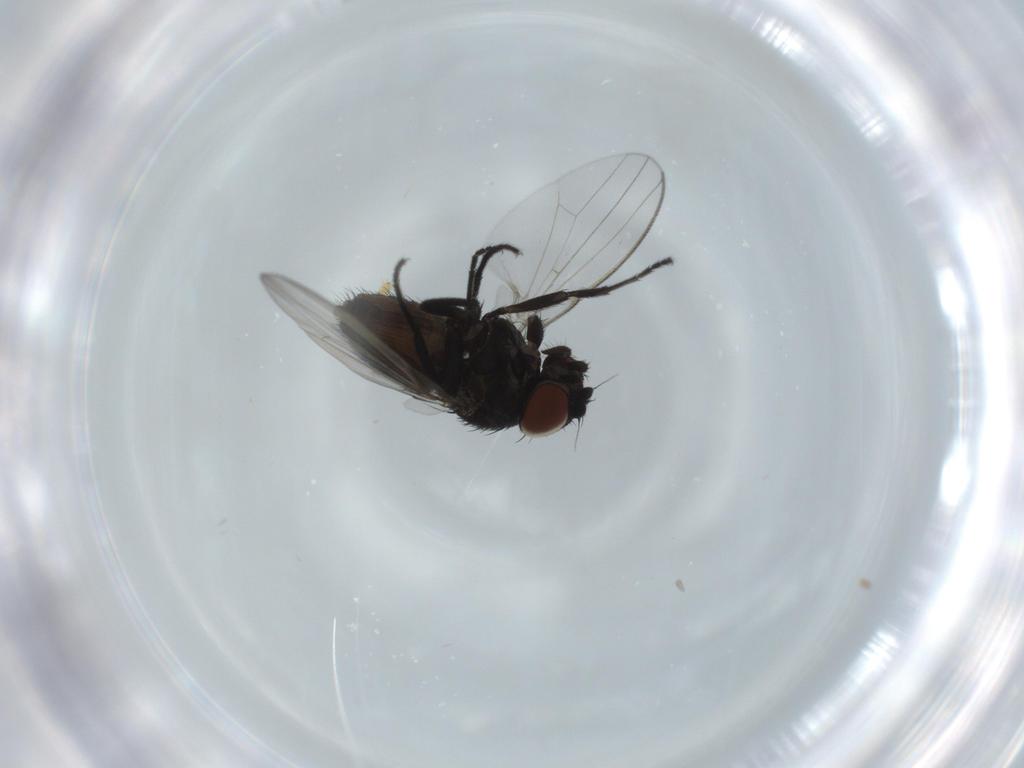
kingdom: Animalia
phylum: Arthropoda
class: Insecta
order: Diptera
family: Milichiidae
